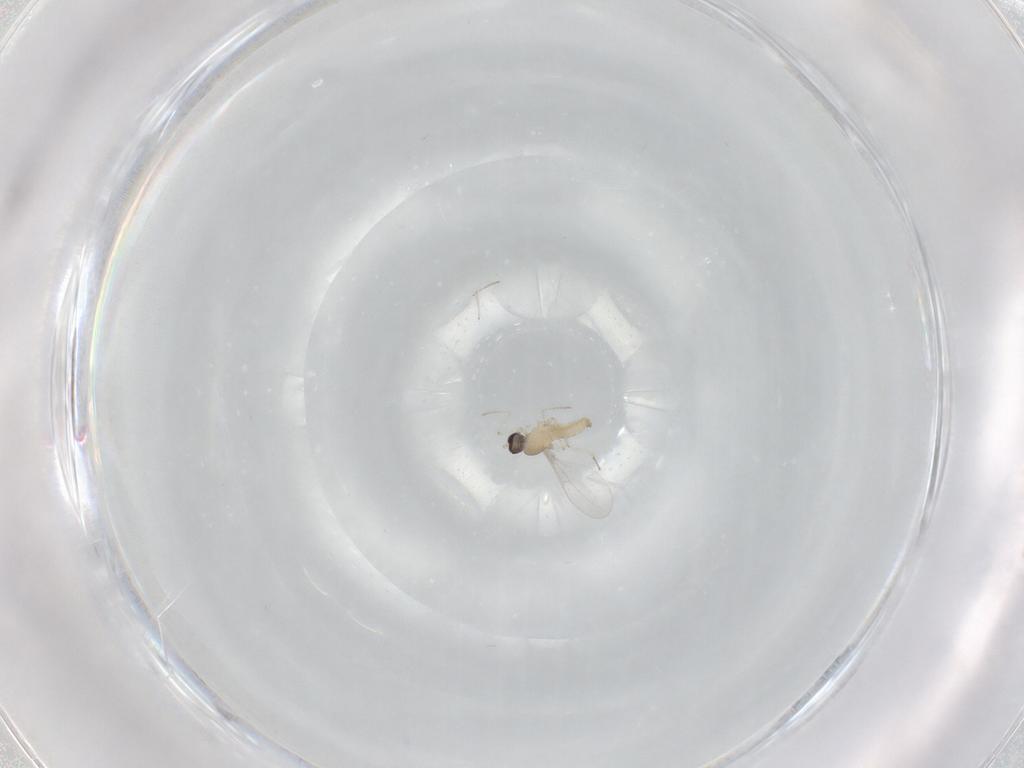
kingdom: Animalia
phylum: Arthropoda
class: Insecta
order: Diptera
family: Cecidomyiidae
